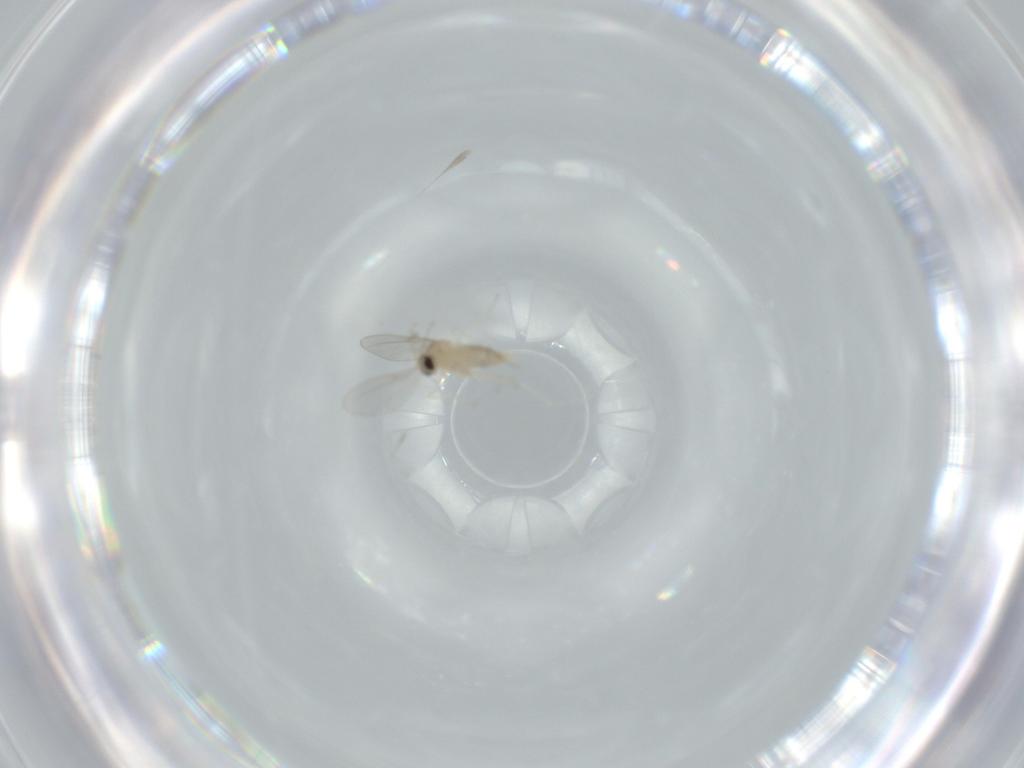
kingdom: Animalia
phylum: Arthropoda
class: Insecta
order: Diptera
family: Cecidomyiidae
